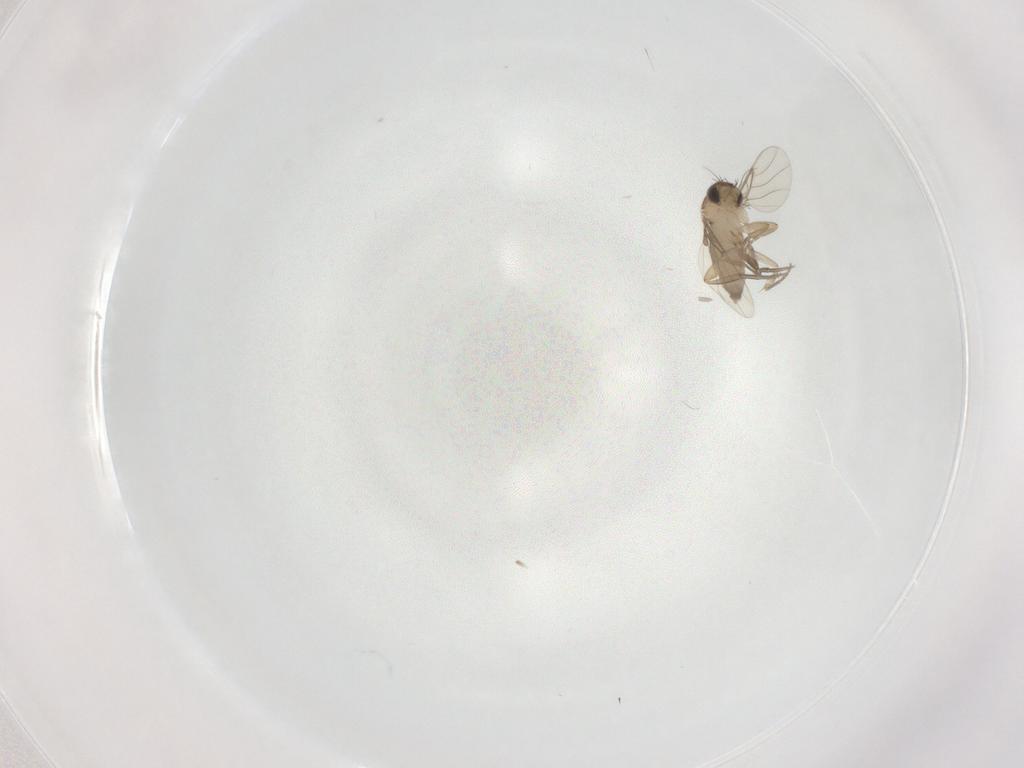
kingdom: Animalia
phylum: Arthropoda
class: Insecta
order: Diptera
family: Phoridae
